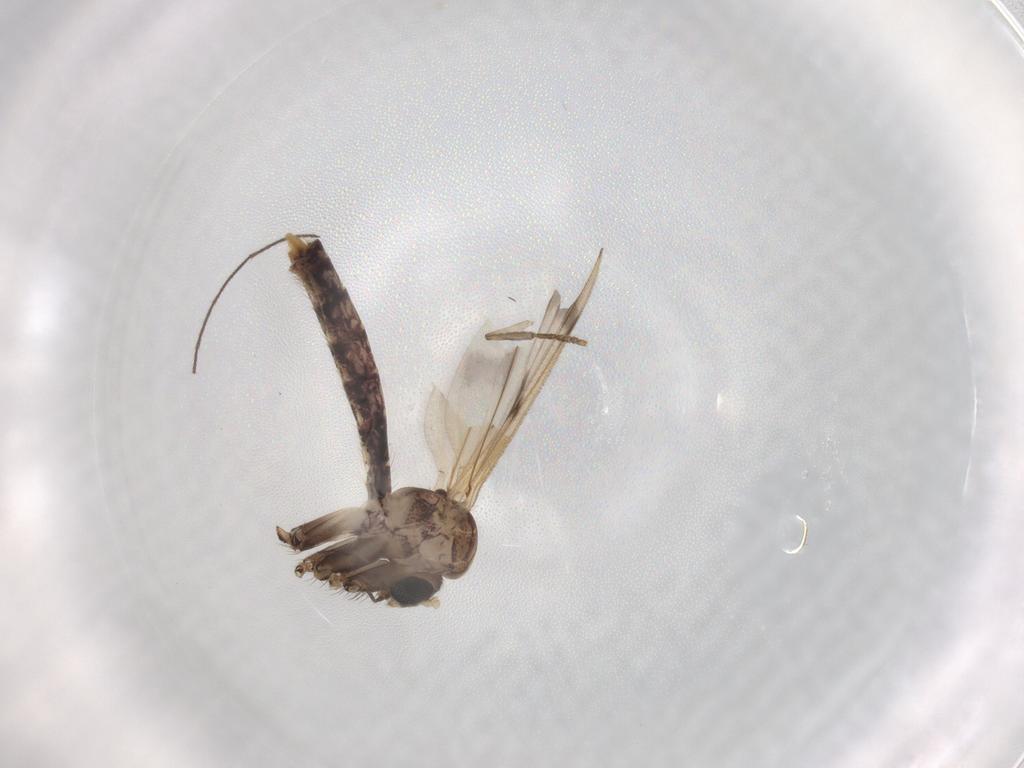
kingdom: Animalia
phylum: Arthropoda
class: Insecta
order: Diptera
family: Psychodidae
